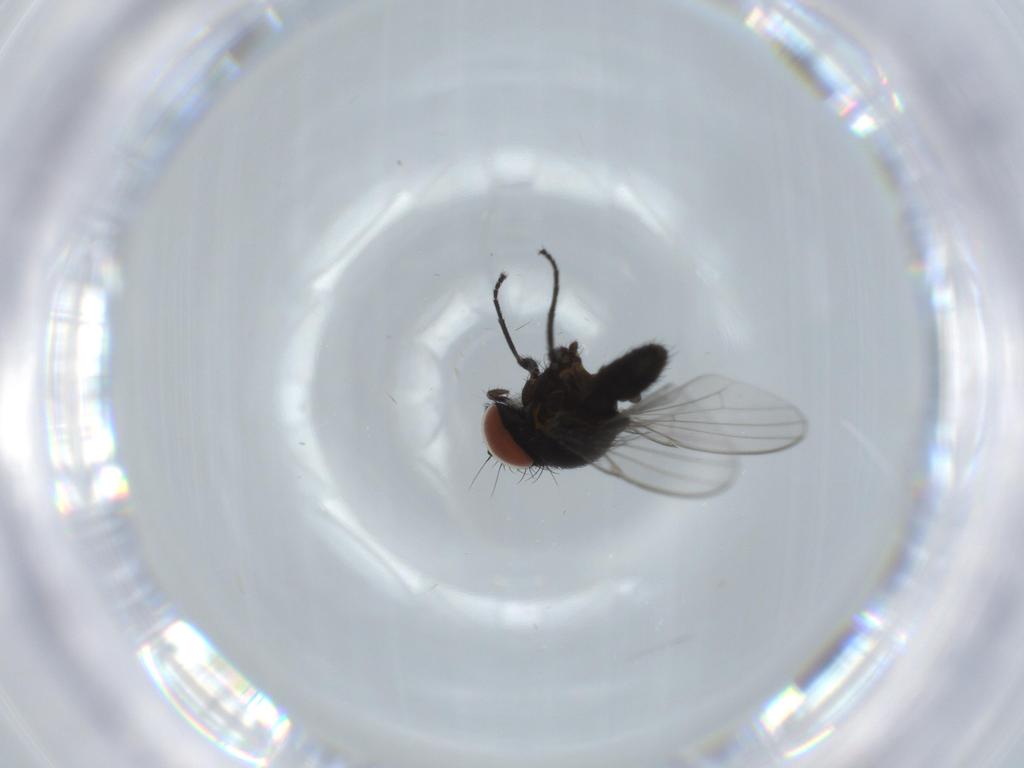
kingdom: Animalia
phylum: Arthropoda
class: Insecta
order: Diptera
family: Milichiidae
